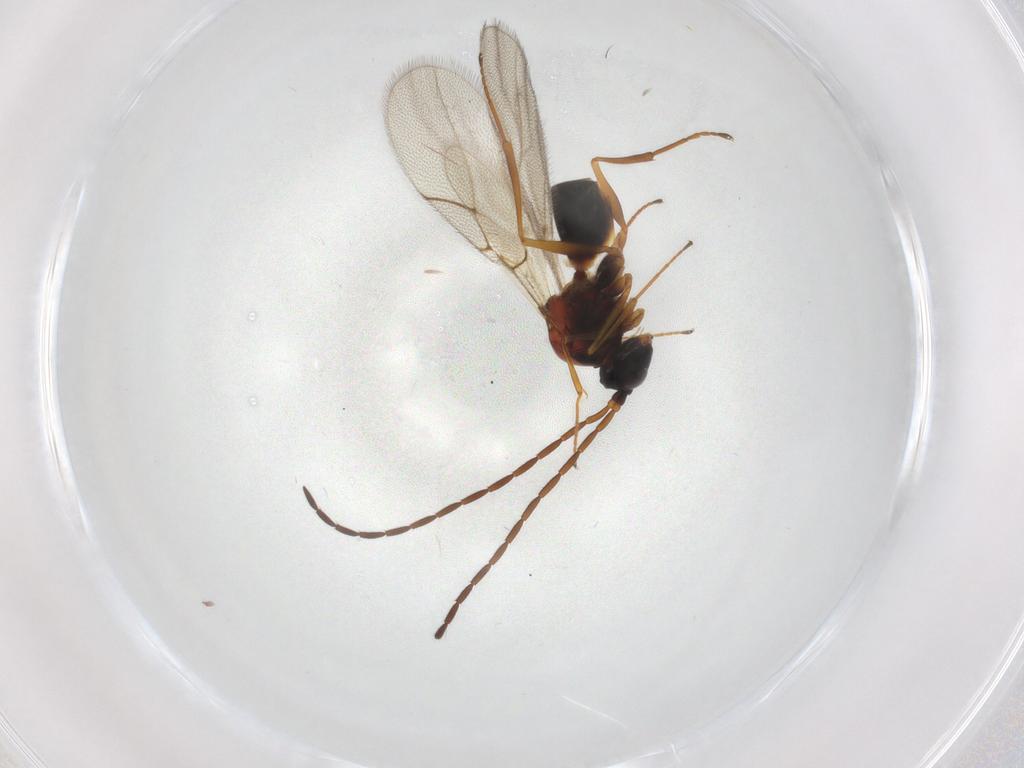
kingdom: Animalia
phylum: Arthropoda
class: Insecta
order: Hymenoptera
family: Figitidae
